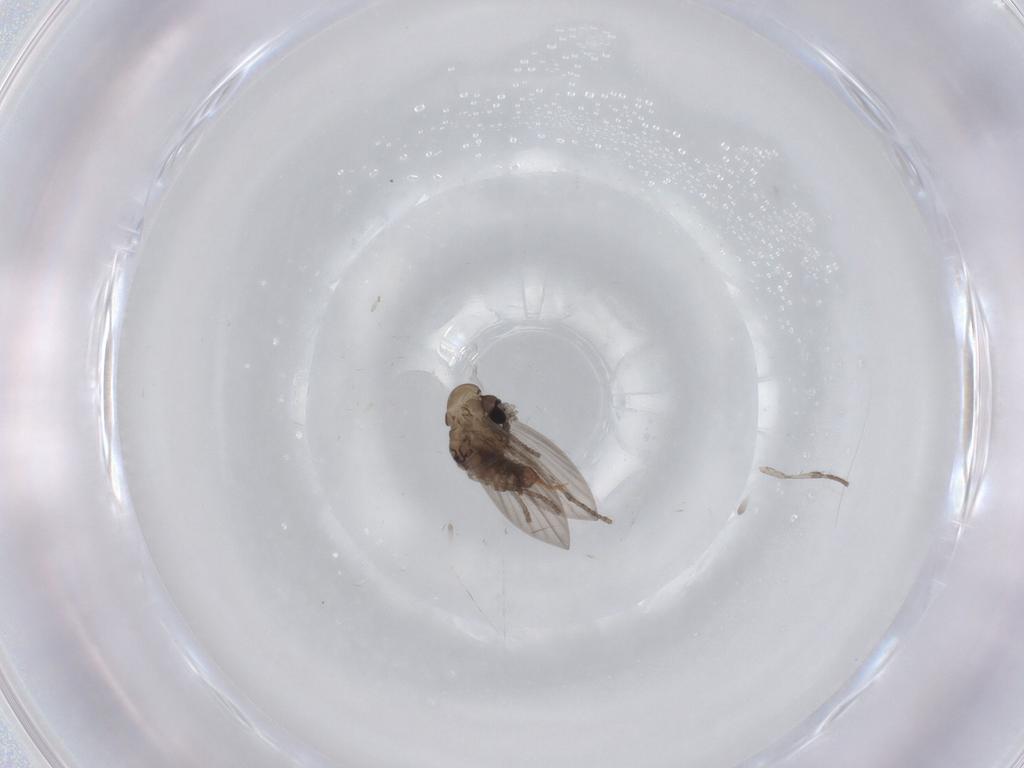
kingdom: Animalia
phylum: Arthropoda
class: Insecta
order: Diptera
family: Psychodidae
